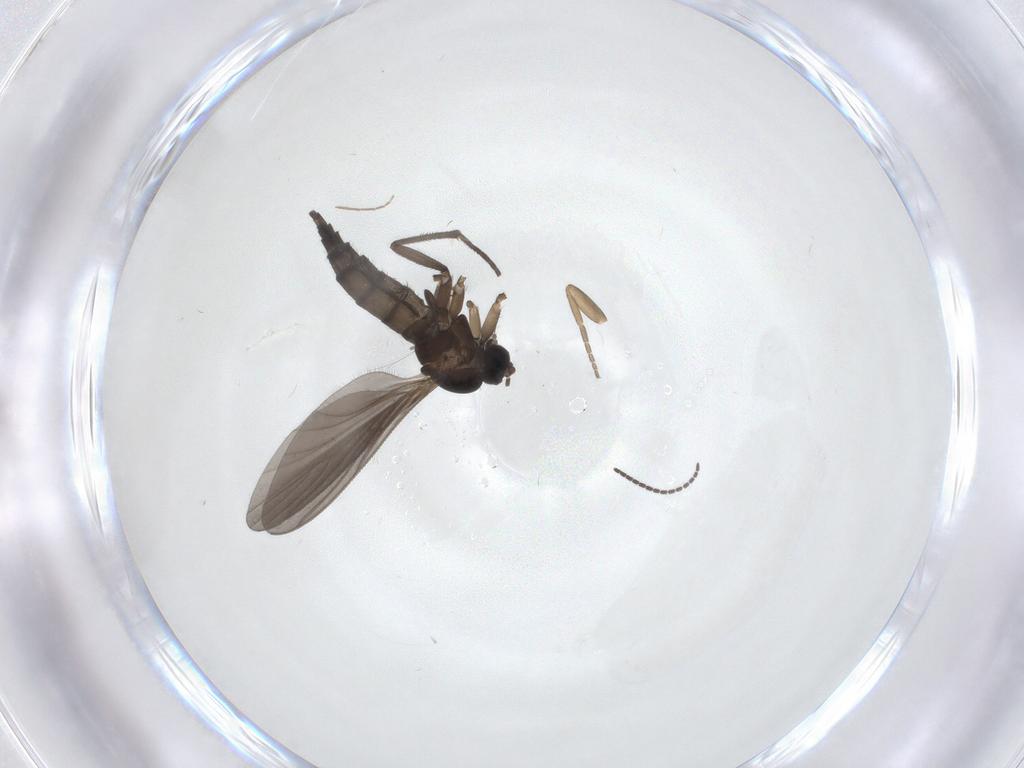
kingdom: Animalia
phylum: Arthropoda
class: Insecta
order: Diptera
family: Sciaridae
